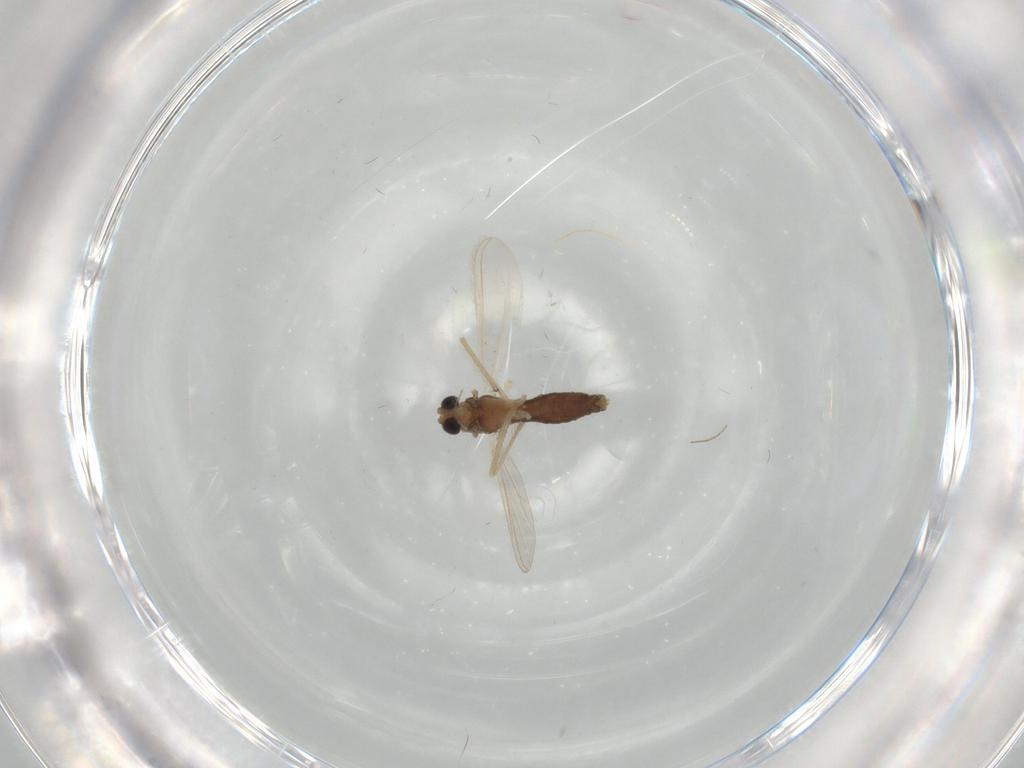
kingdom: Animalia
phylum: Arthropoda
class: Insecta
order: Diptera
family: Chironomidae
